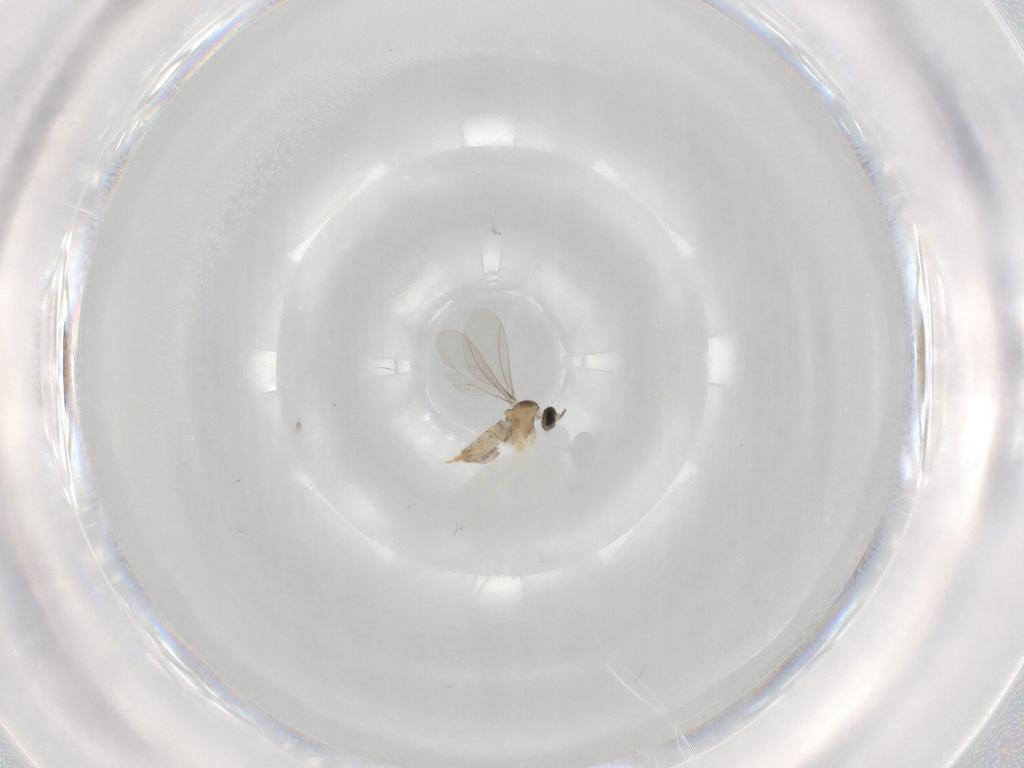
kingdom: Animalia
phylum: Arthropoda
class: Insecta
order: Diptera
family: Cecidomyiidae
